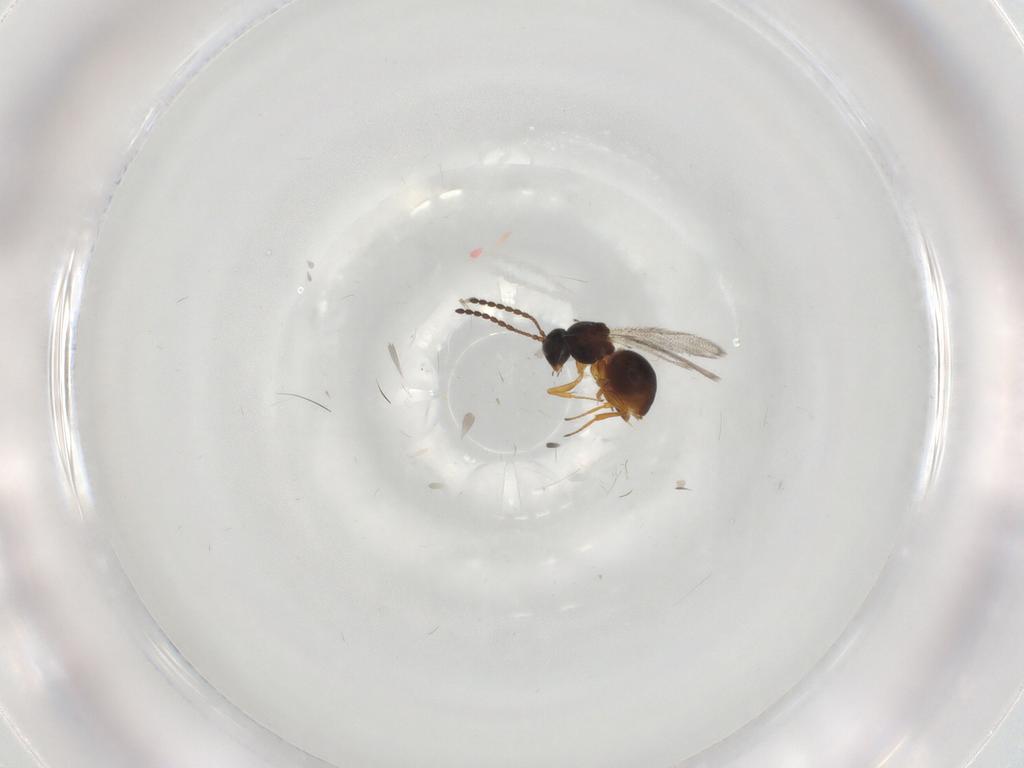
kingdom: Animalia
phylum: Arthropoda
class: Insecta
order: Hymenoptera
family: Figitidae
